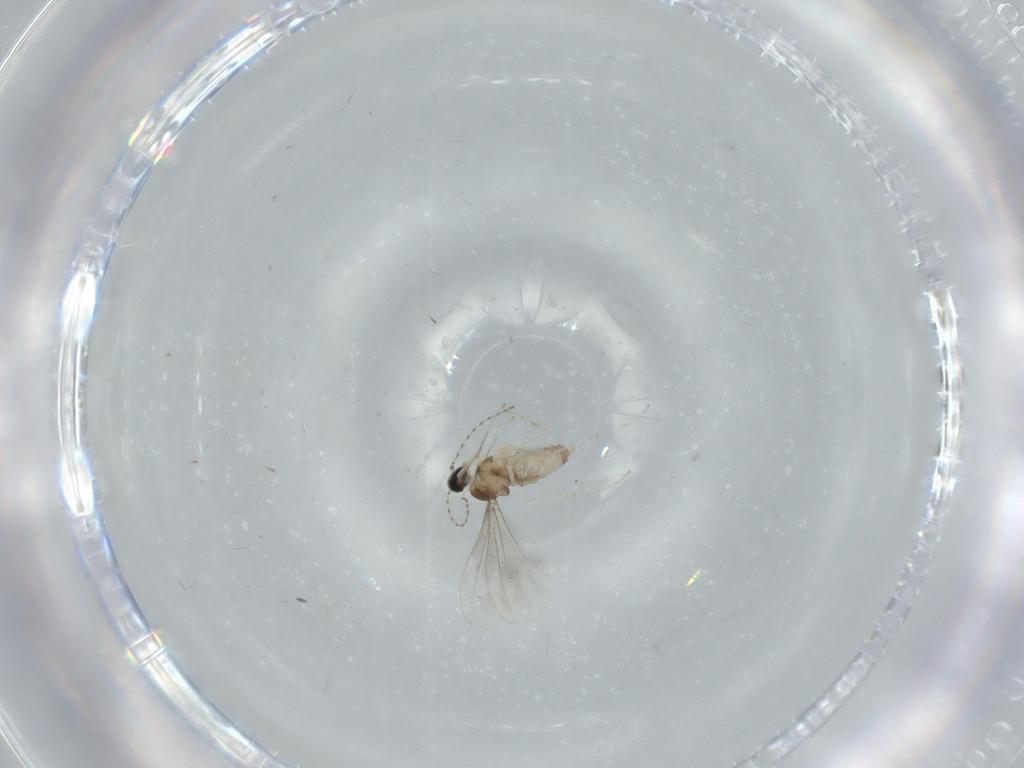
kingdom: Animalia
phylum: Arthropoda
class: Insecta
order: Diptera
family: Cecidomyiidae
